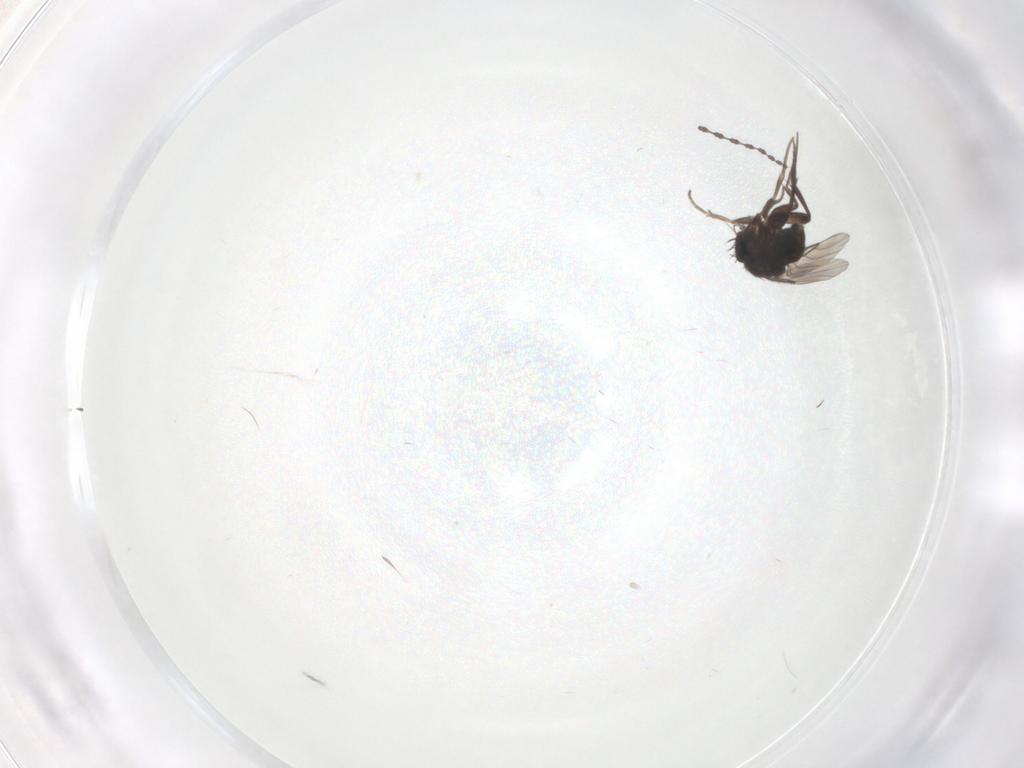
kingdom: Animalia
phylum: Arthropoda
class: Insecta
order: Diptera
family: Phoridae
